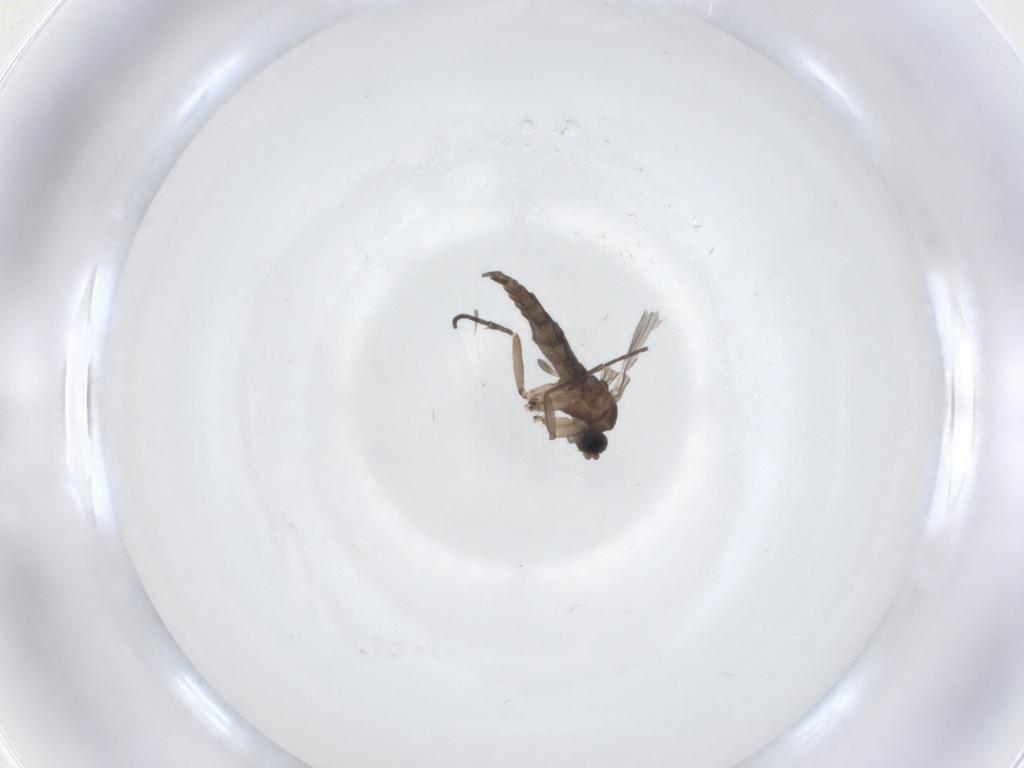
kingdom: Animalia
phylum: Arthropoda
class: Insecta
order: Diptera
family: Sciaridae
